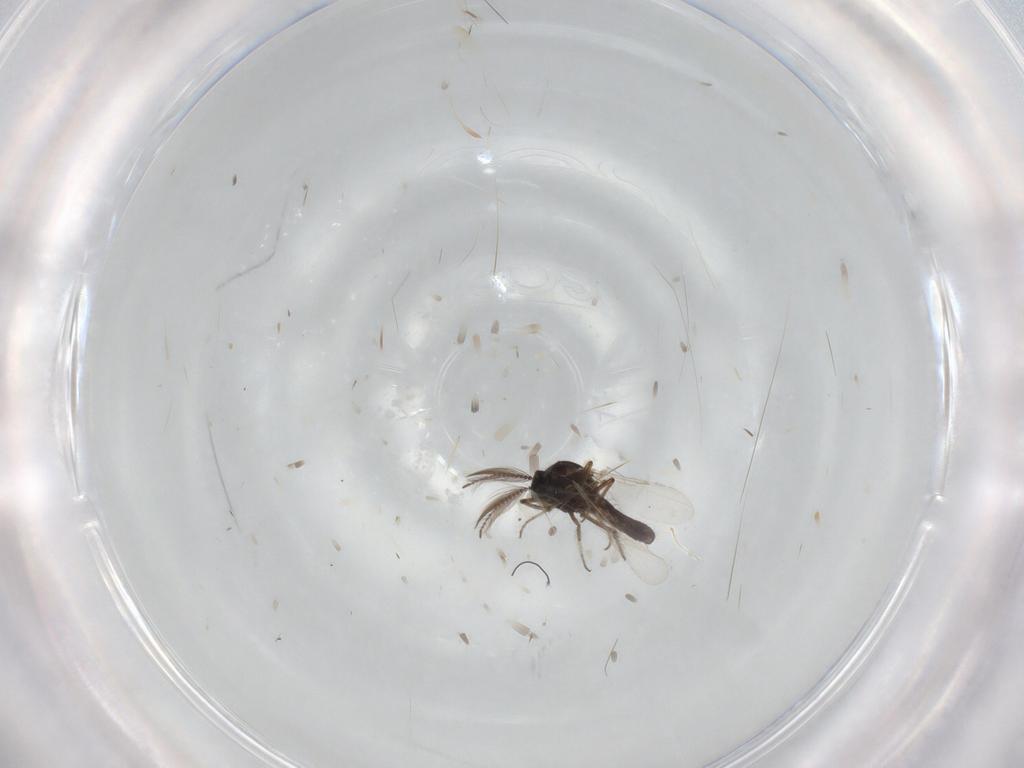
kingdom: Animalia
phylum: Arthropoda
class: Insecta
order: Diptera
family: Ceratopogonidae
